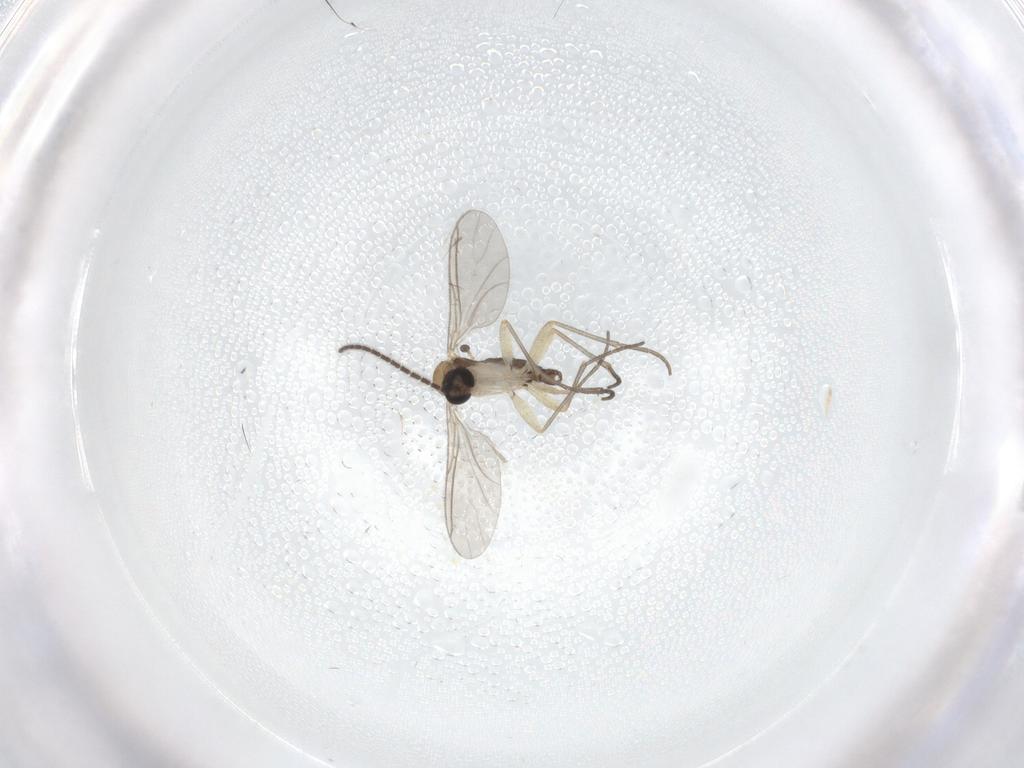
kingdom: Animalia
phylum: Arthropoda
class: Insecta
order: Diptera
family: Sciaridae
